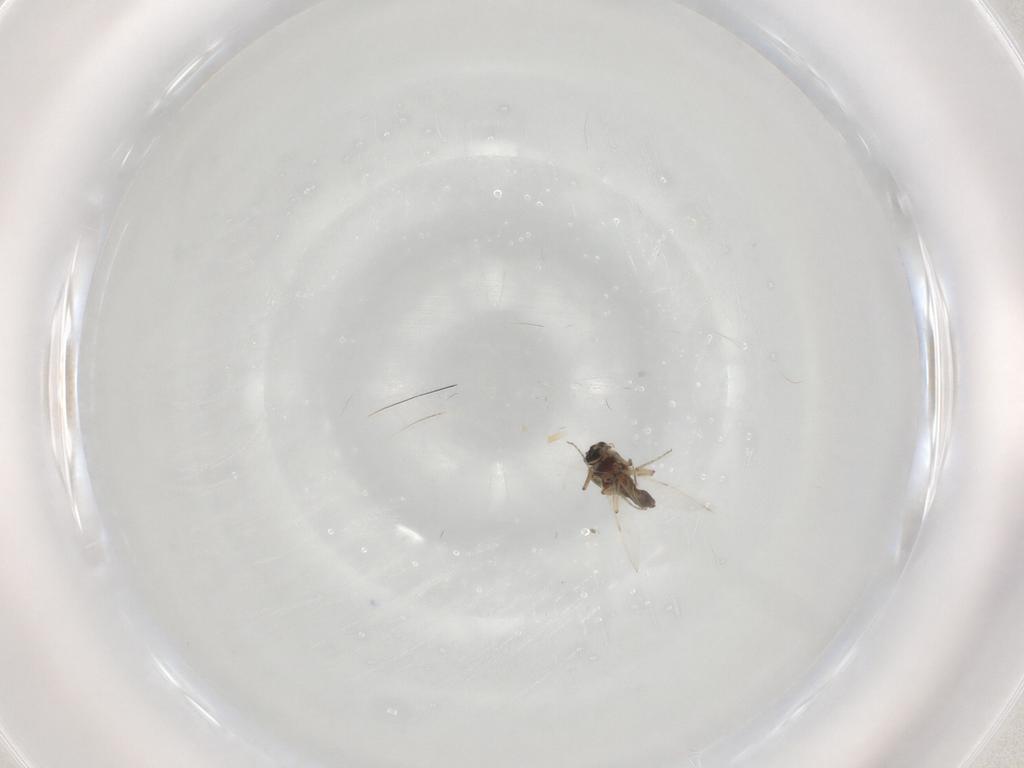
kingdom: Animalia
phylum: Arthropoda
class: Insecta
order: Diptera
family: Ceratopogonidae
